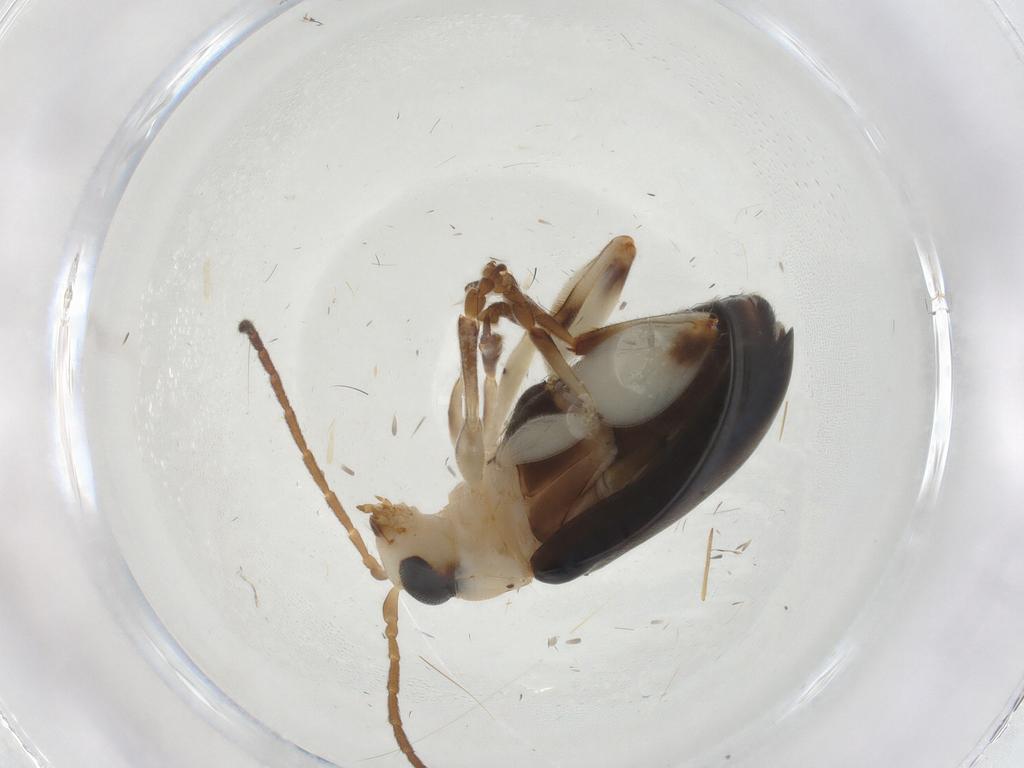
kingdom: Animalia
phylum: Arthropoda
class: Insecta
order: Coleoptera
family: Chrysomelidae
